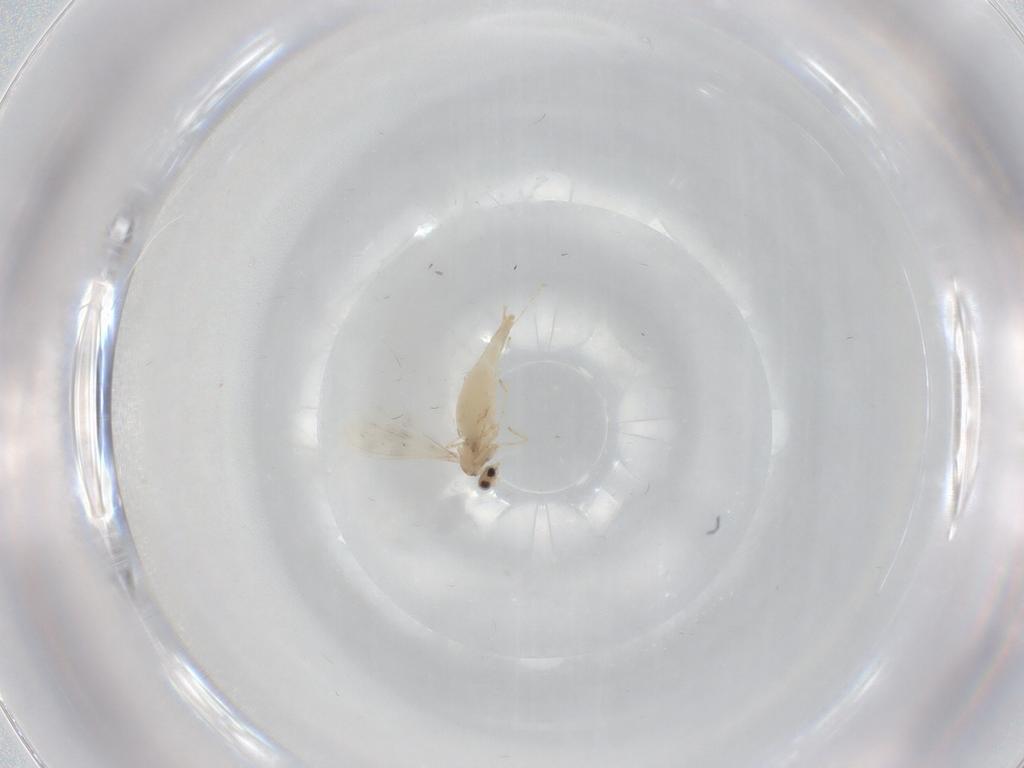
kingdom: Animalia
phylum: Arthropoda
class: Insecta
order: Diptera
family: Cecidomyiidae
